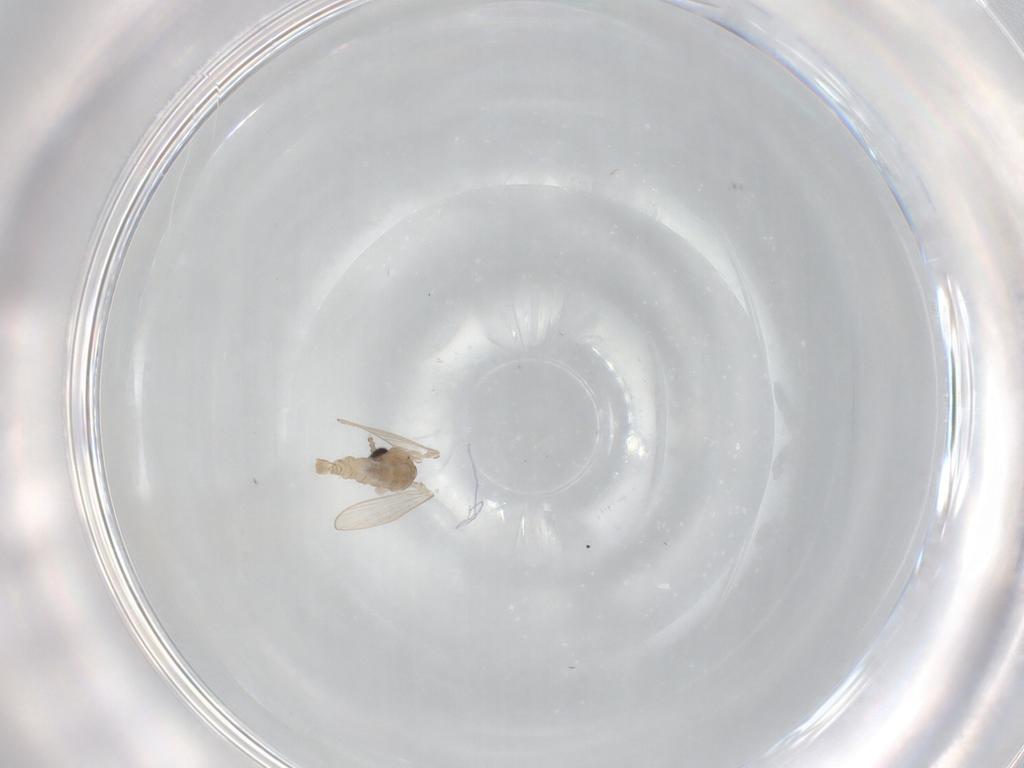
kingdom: Animalia
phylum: Arthropoda
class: Insecta
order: Diptera
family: Psychodidae
